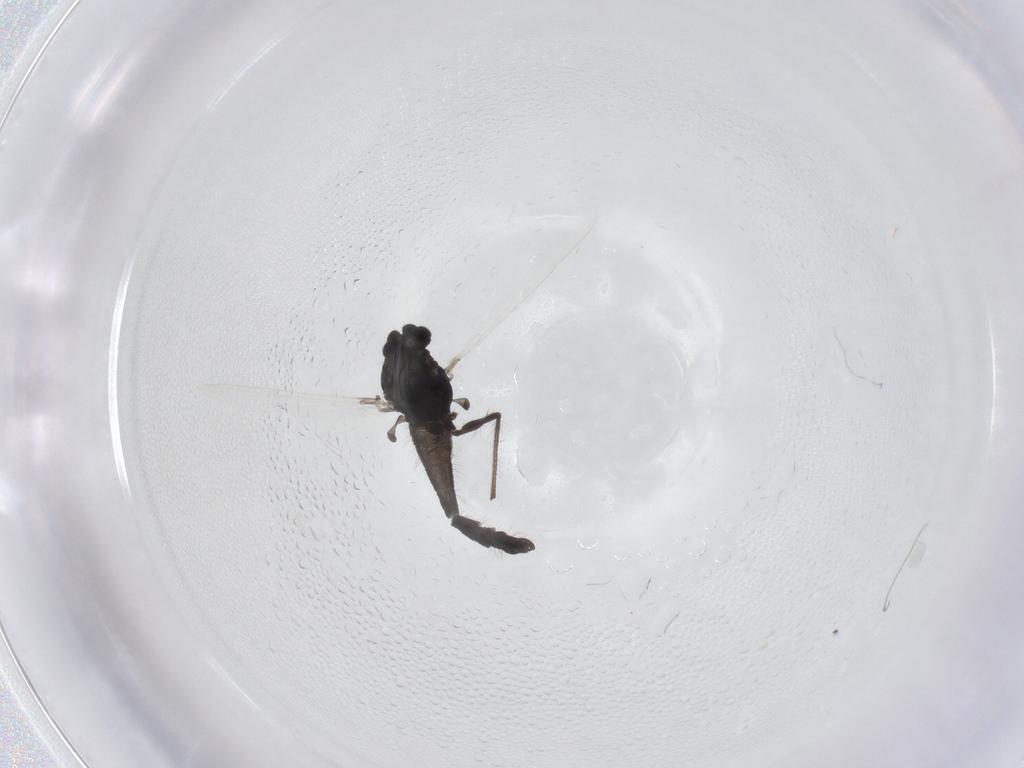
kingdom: Animalia
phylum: Arthropoda
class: Insecta
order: Diptera
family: Chironomidae
